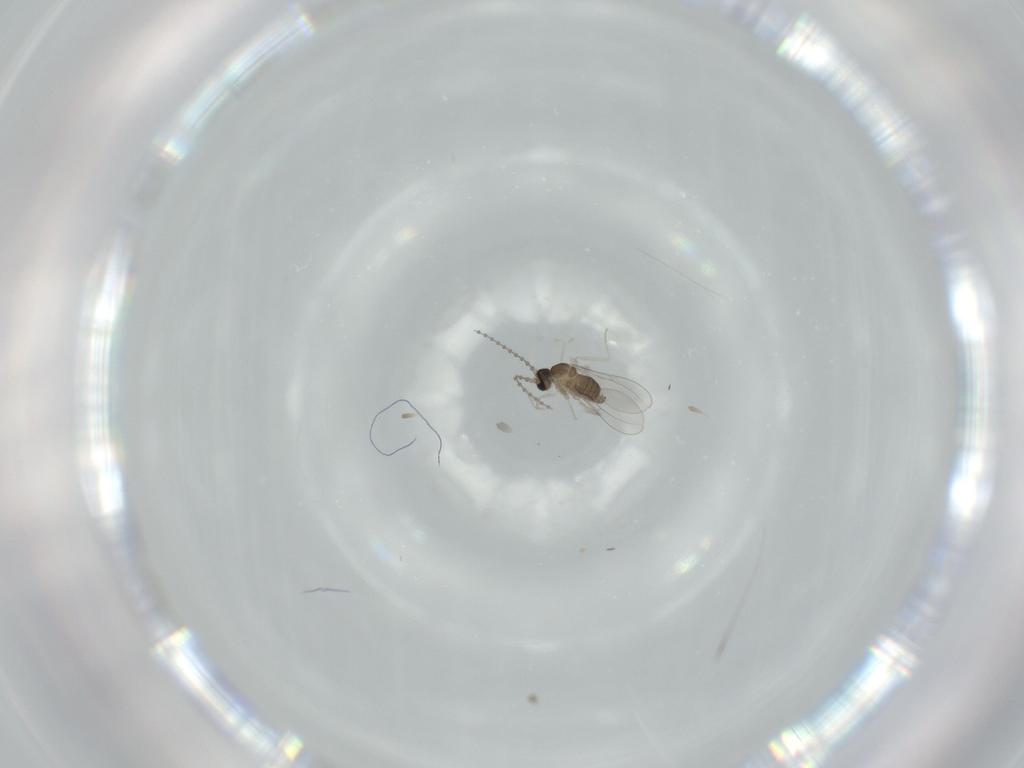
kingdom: Animalia
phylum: Arthropoda
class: Insecta
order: Diptera
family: Cecidomyiidae
